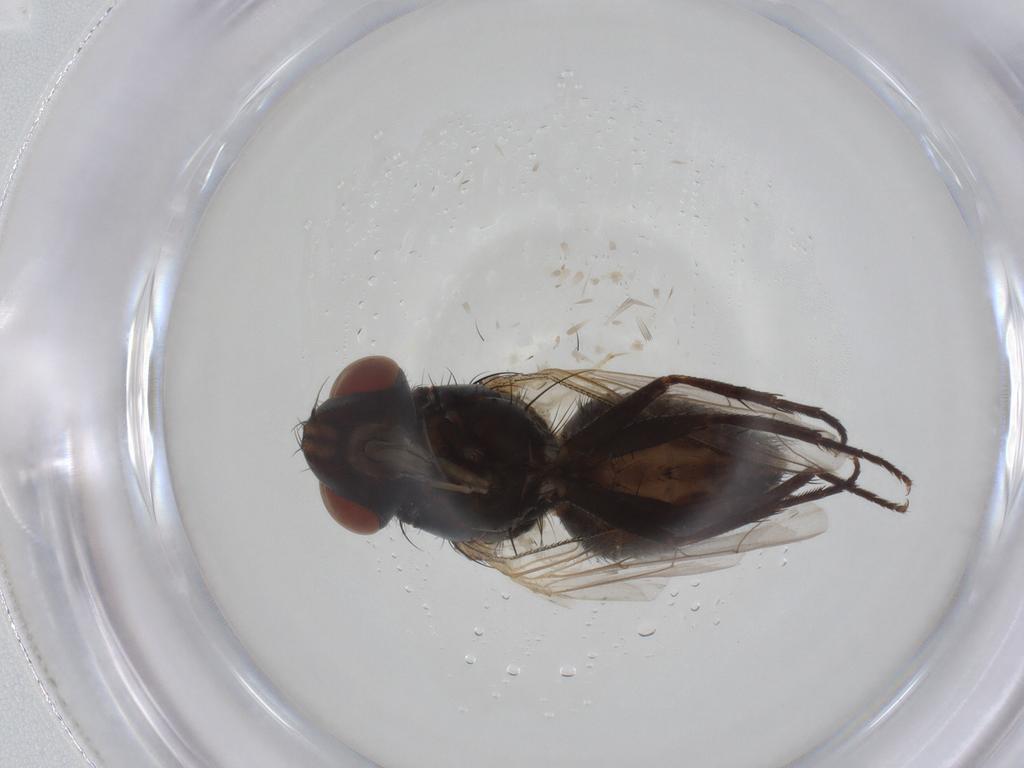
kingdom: Animalia
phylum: Arthropoda
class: Insecta
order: Diptera
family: Sarcophagidae
